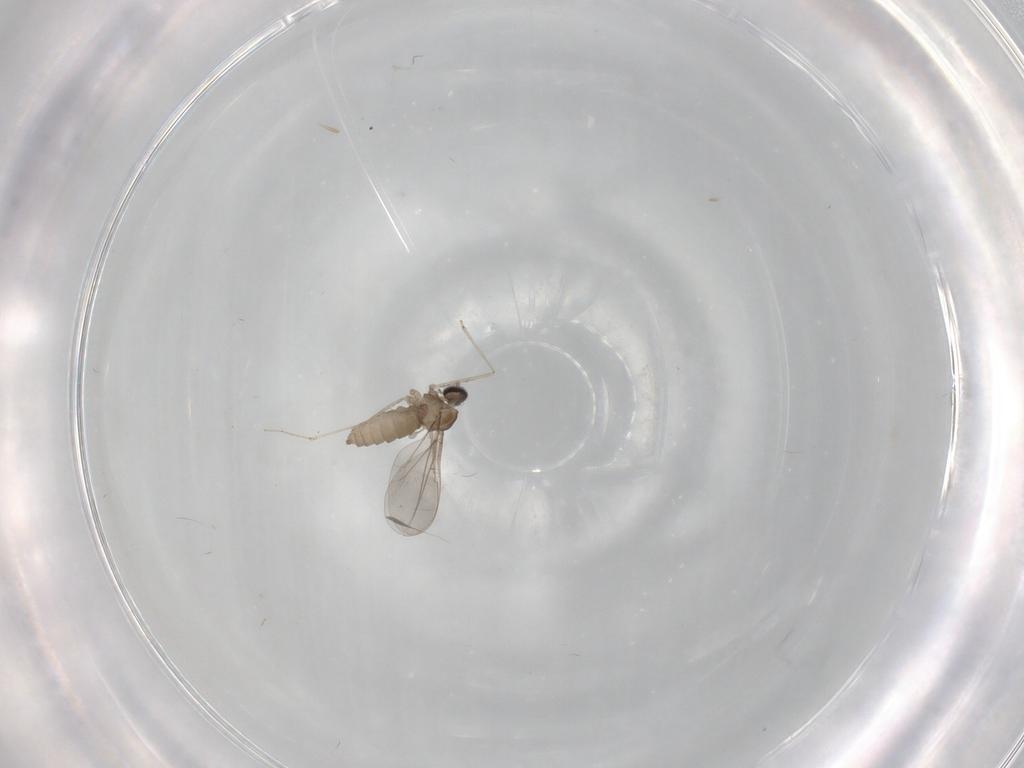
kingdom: Animalia
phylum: Arthropoda
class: Insecta
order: Diptera
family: Cecidomyiidae
